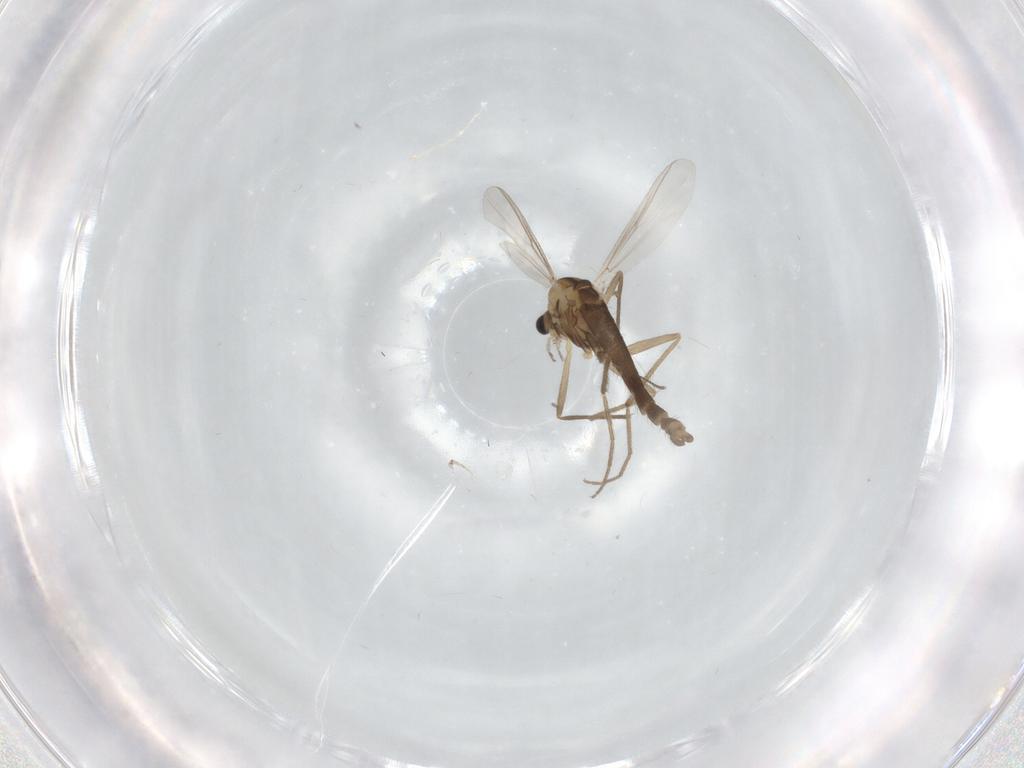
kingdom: Animalia
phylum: Arthropoda
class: Insecta
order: Diptera
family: Chironomidae
